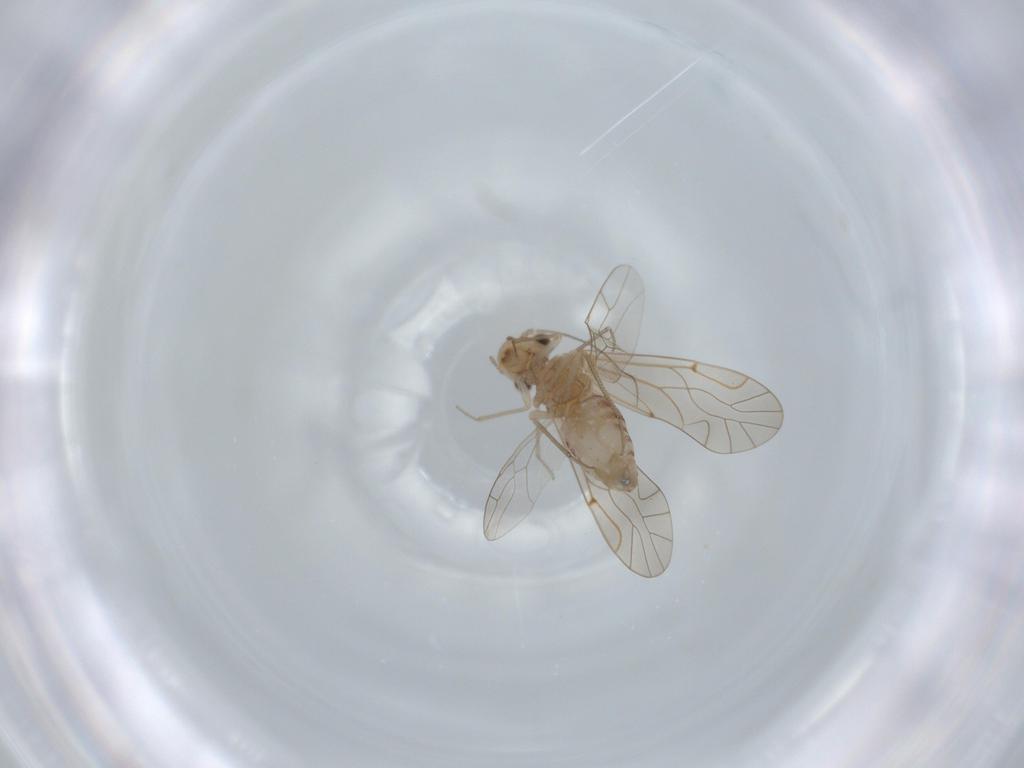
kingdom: Animalia
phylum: Arthropoda
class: Insecta
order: Psocodea
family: Lachesillidae
